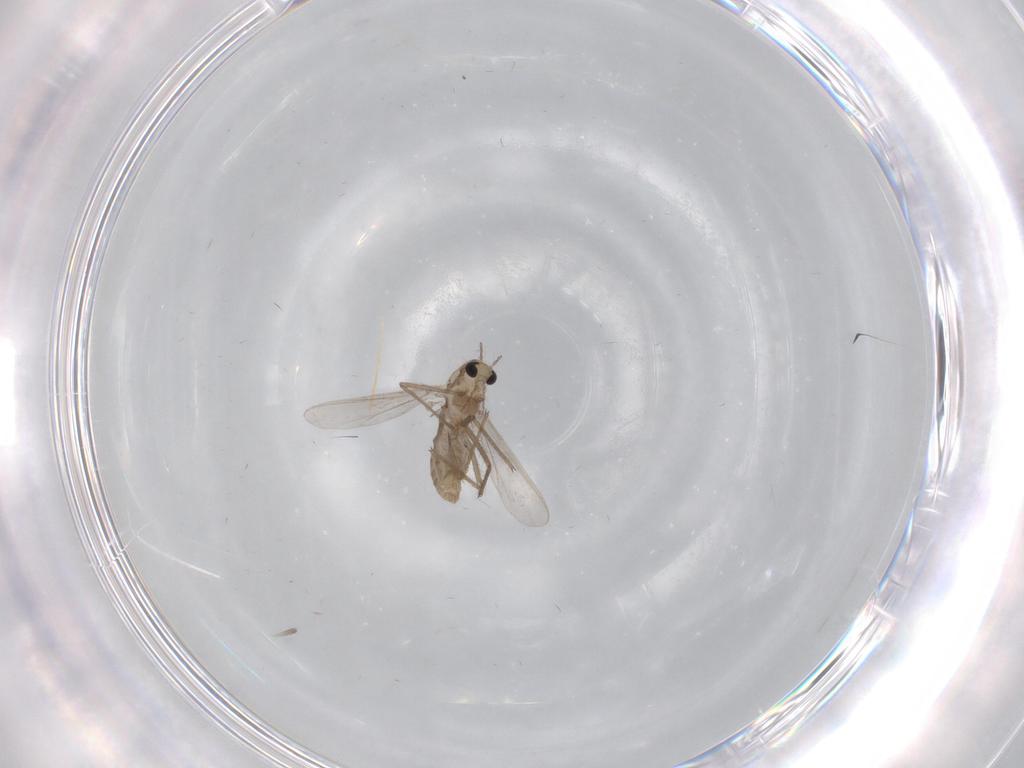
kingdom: Animalia
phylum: Arthropoda
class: Insecta
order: Diptera
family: Chironomidae
